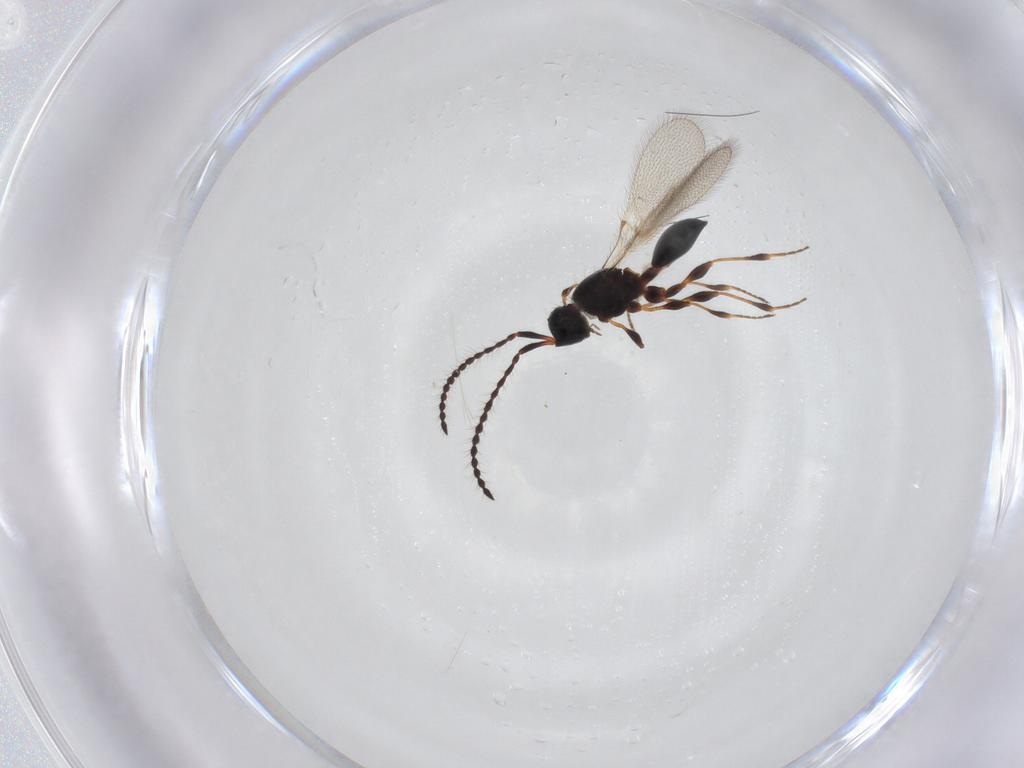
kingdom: Animalia
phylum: Arthropoda
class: Insecta
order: Hymenoptera
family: Diapriidae
